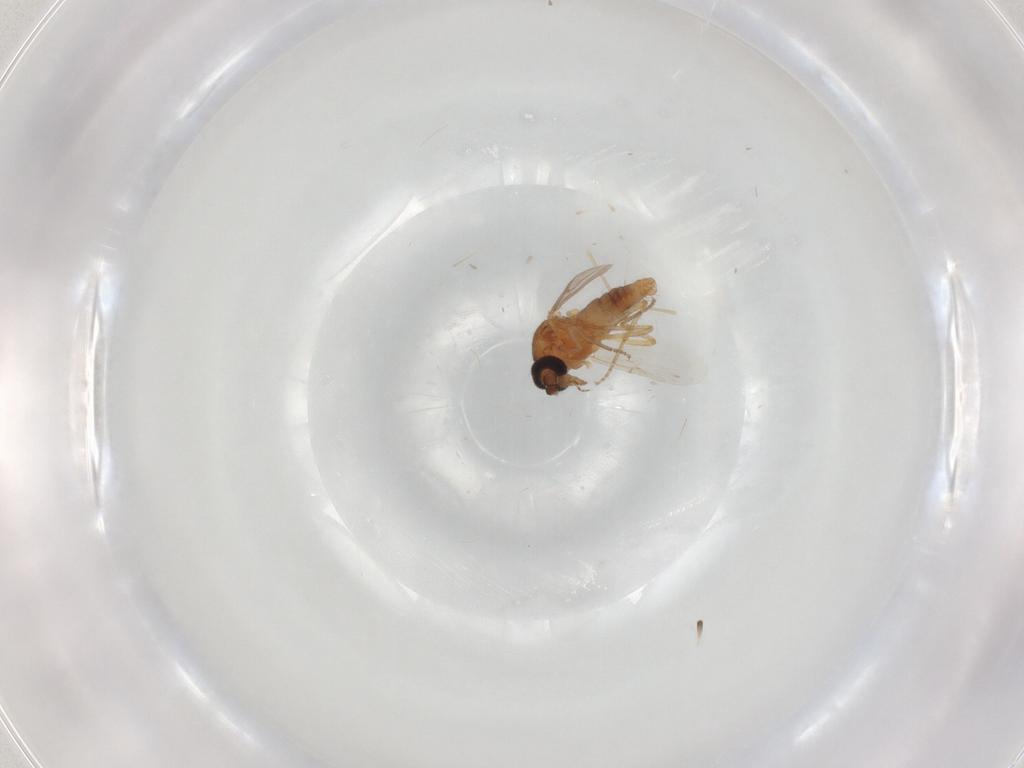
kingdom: Animalia
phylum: Arthropoda
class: Insecta
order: Diptera
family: Ceratopogonidae
